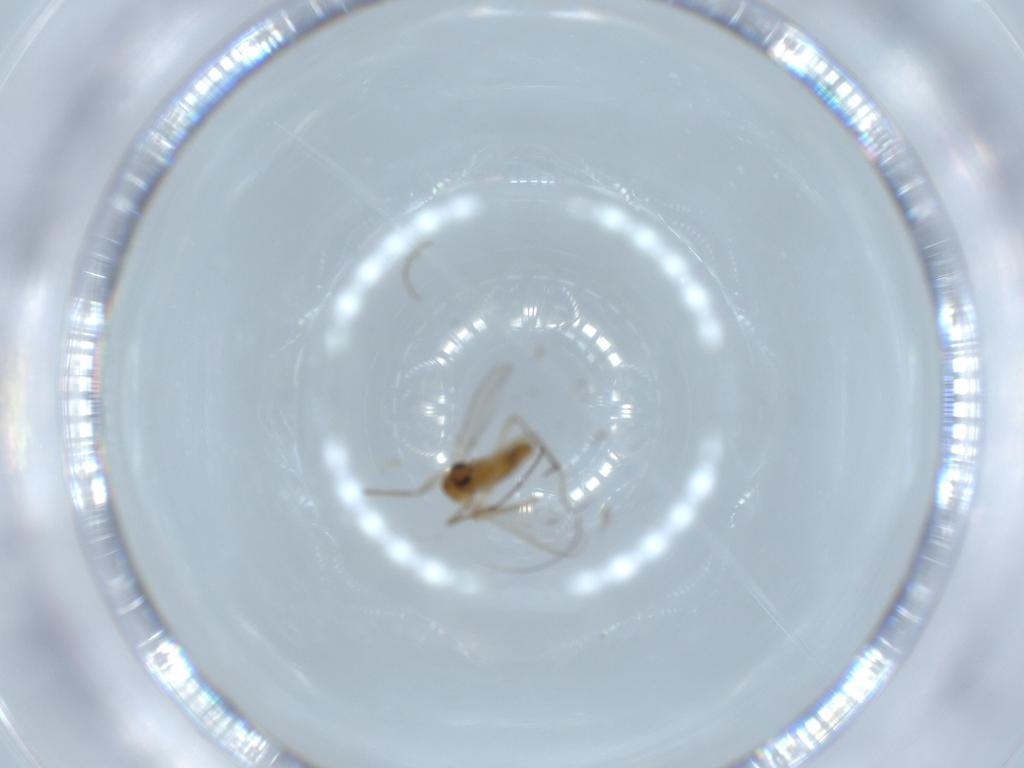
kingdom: Animalia
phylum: Arthropoda
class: Insecta
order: Diptera
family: Chironomidae
